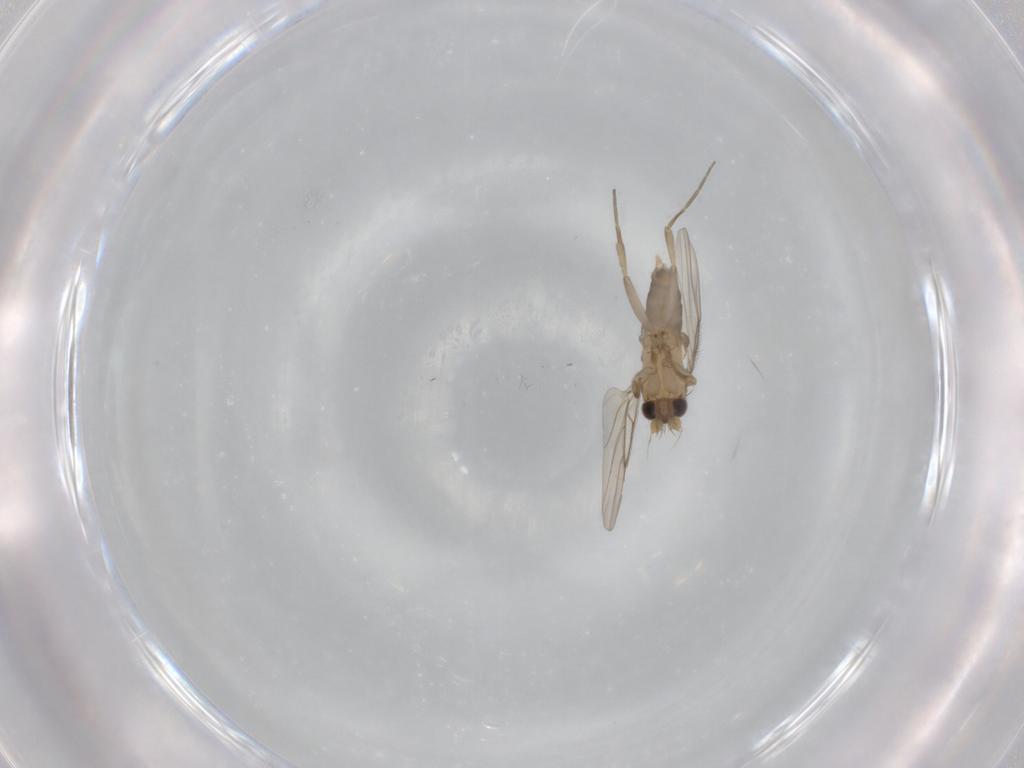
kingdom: Animalia
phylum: Arthropoda
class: Insecta
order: Diptera
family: Phoridae
